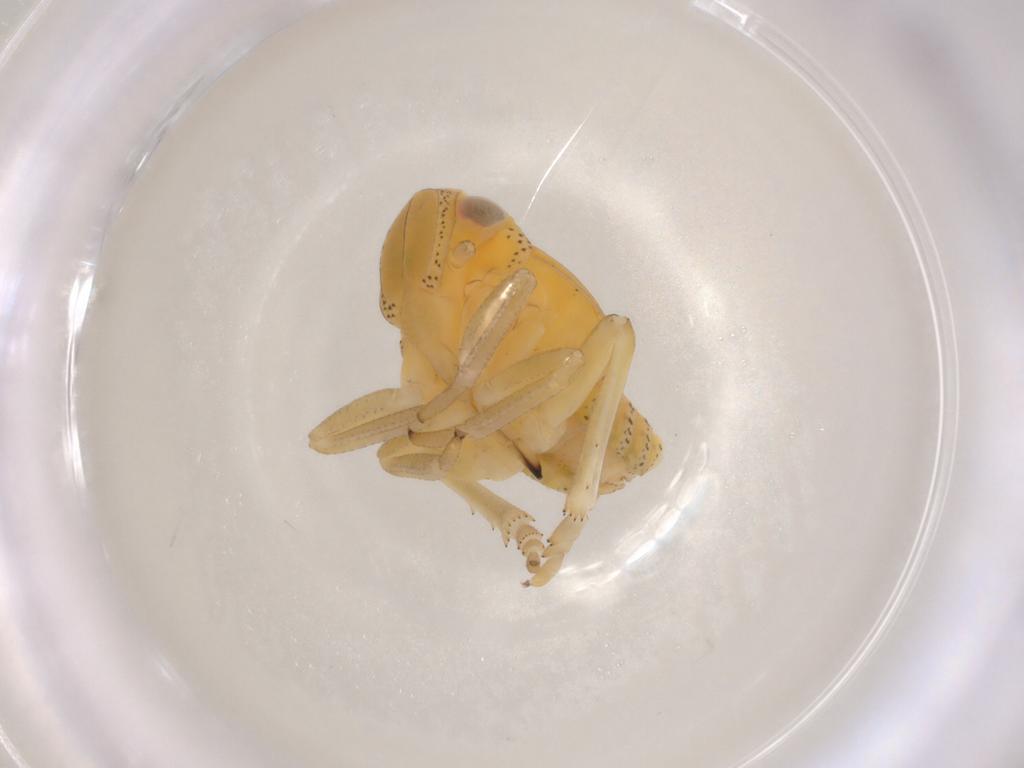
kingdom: Animalia
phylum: Arthropoda
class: Insecta
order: Hemiptera
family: Tropiduchidae
